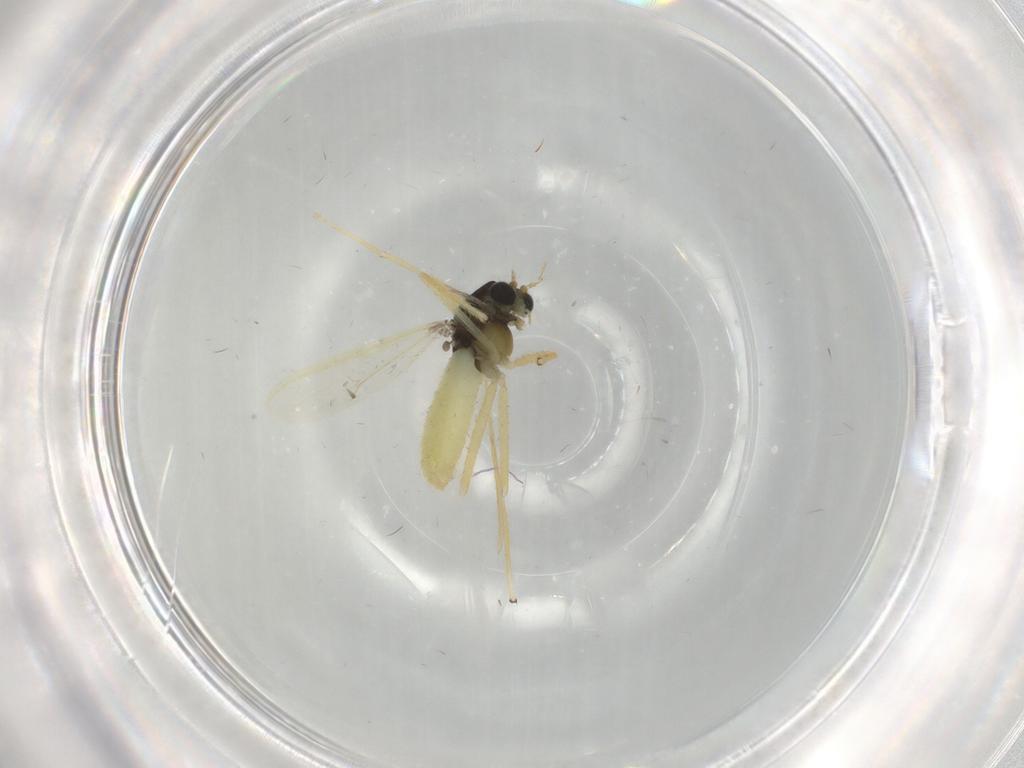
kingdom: Animalia
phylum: Arthropoda
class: Insecta
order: Diptera
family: Chironomidae
